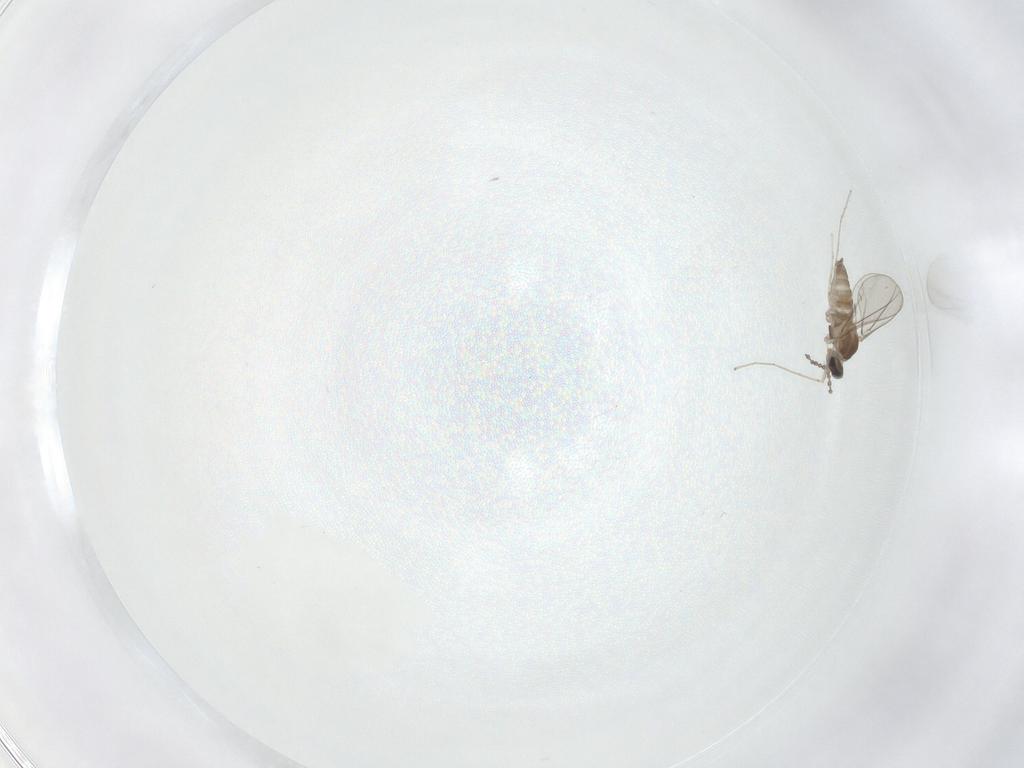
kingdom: Animalia
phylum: Arthropoda
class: Insecta
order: Diptera
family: Cecidomyiidae
